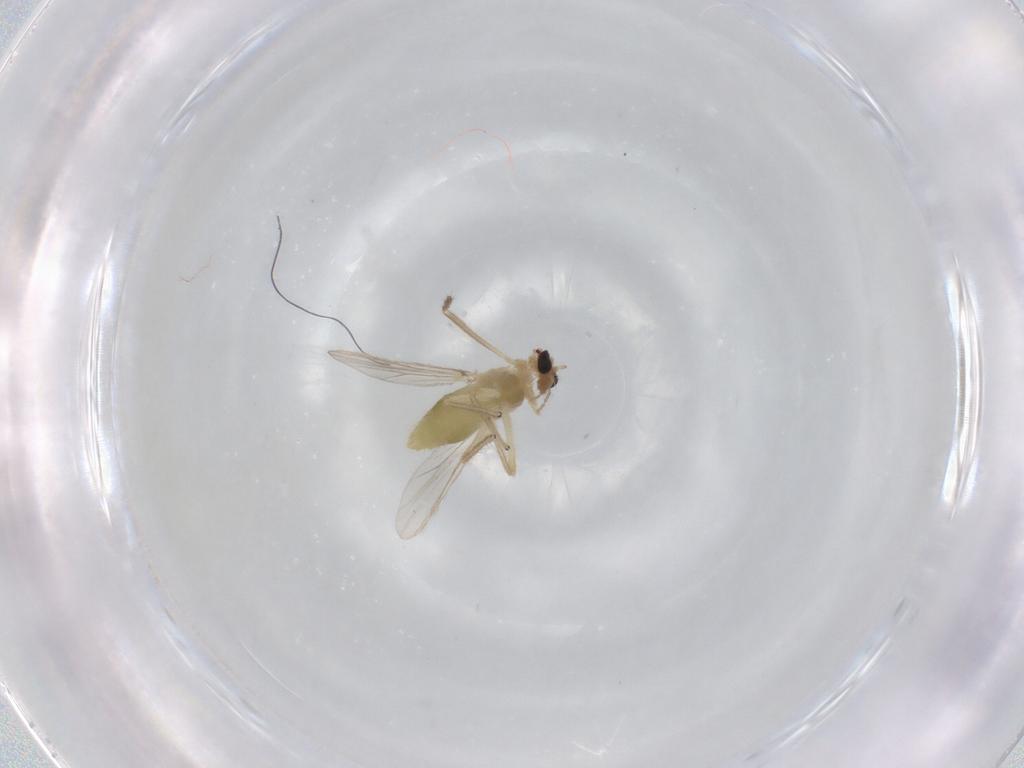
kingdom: Animalia
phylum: Arthropoda
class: Insecta
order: Diptera
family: Chironomidae
